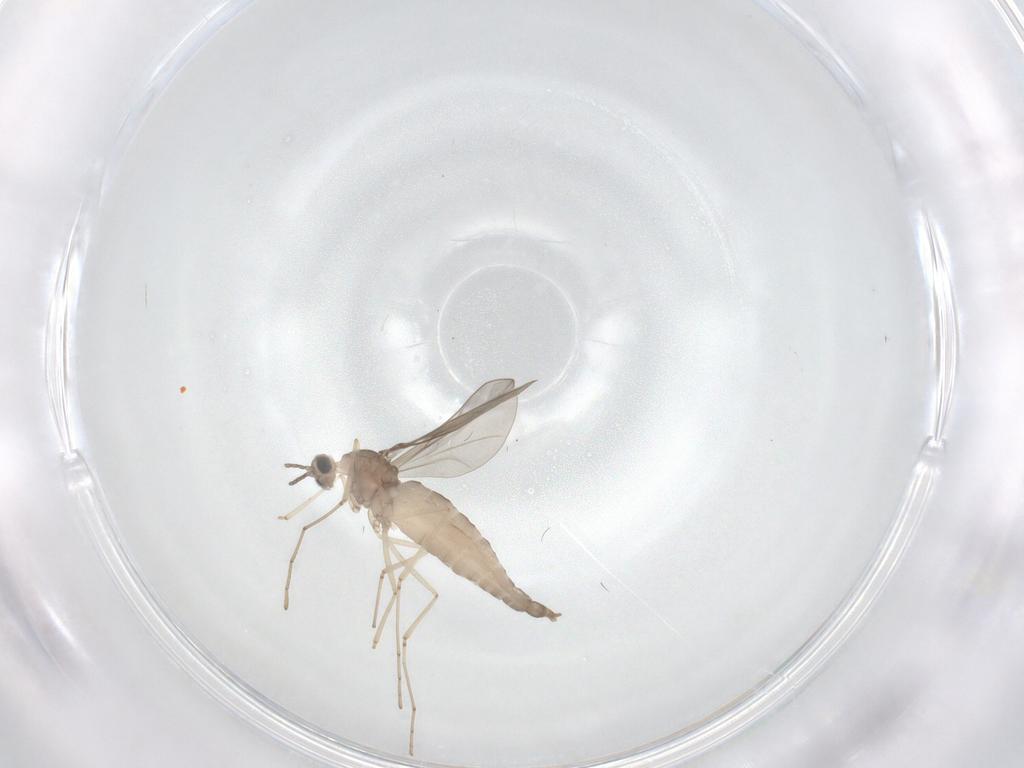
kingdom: Animalia
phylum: Arthropoda
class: Insecta
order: Diptera
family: Cecidomyiidae
